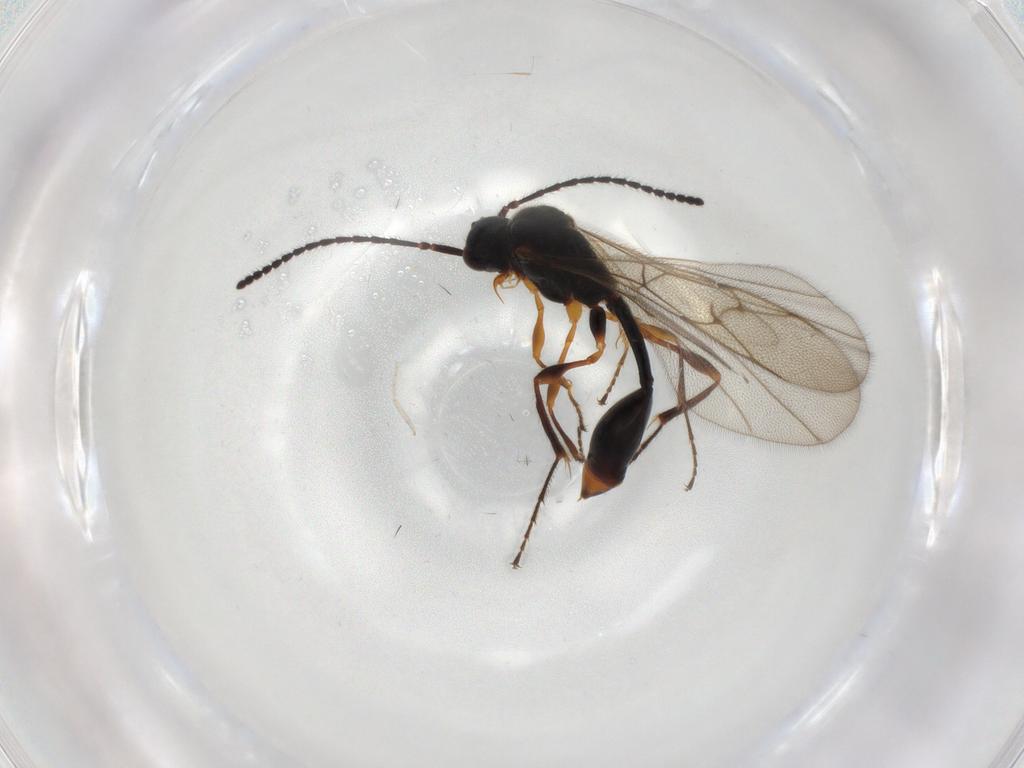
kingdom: Animalia
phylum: Arthropoda
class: Insecta
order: Hymenoptera
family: Diapriidae
